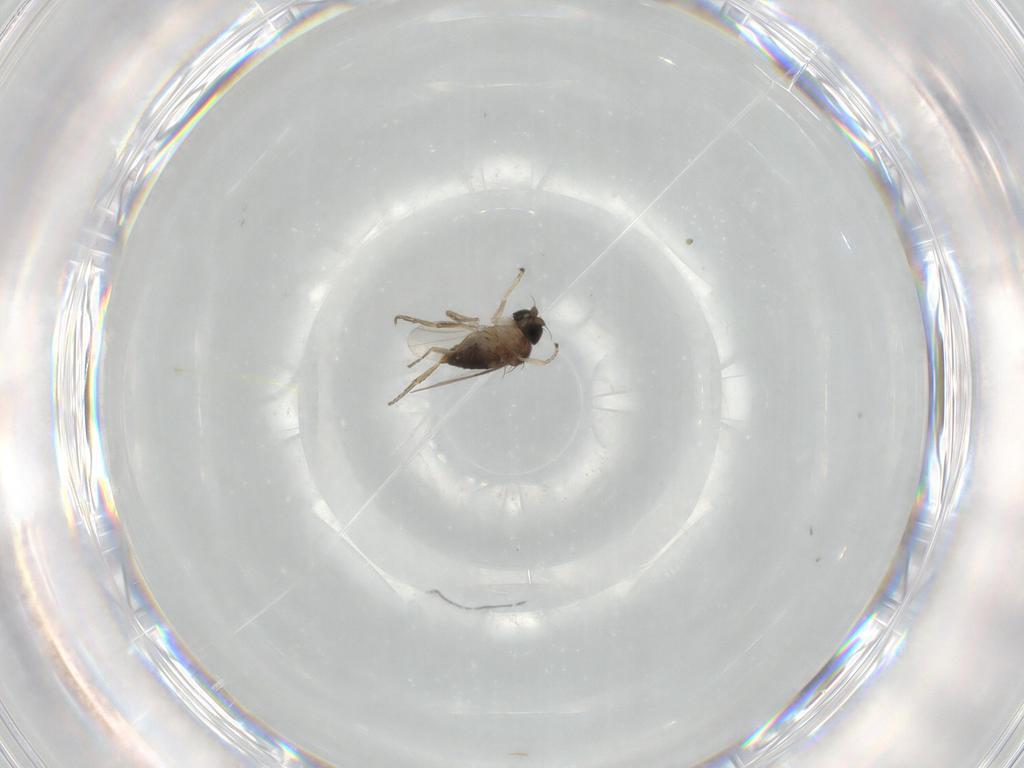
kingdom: Animalia
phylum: Arthropoda
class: Insecta
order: Diptera
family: Phoridae
